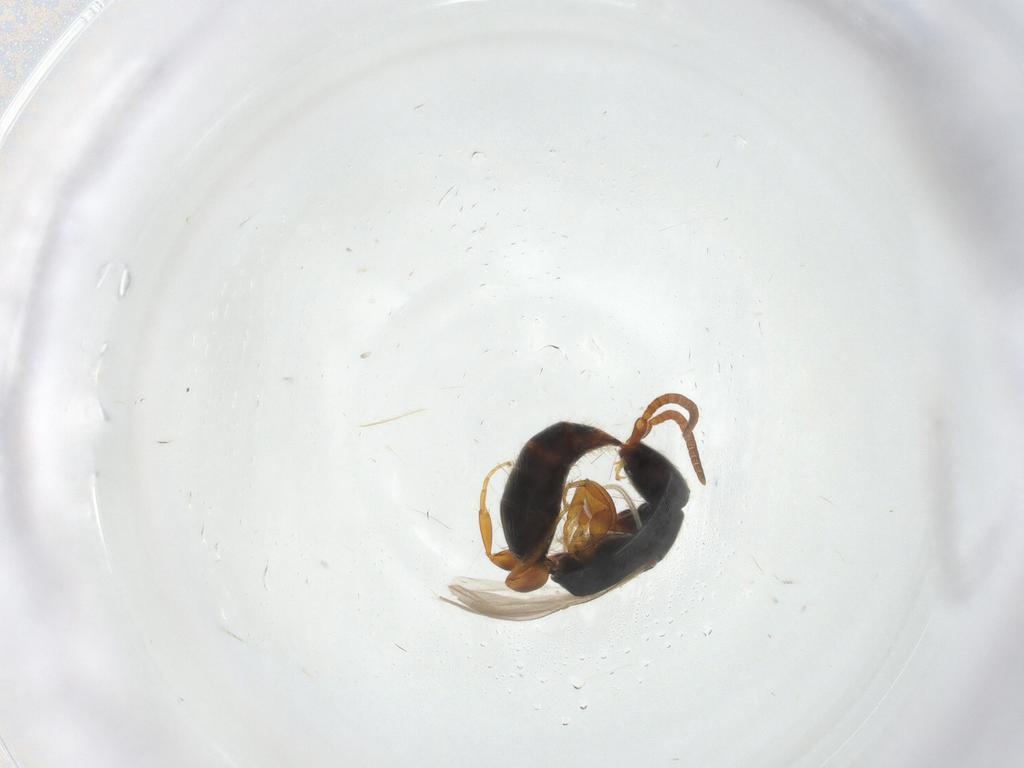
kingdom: Animalia
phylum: Arthropoda
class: Insecta
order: Hymenoptera
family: Bethylidae
